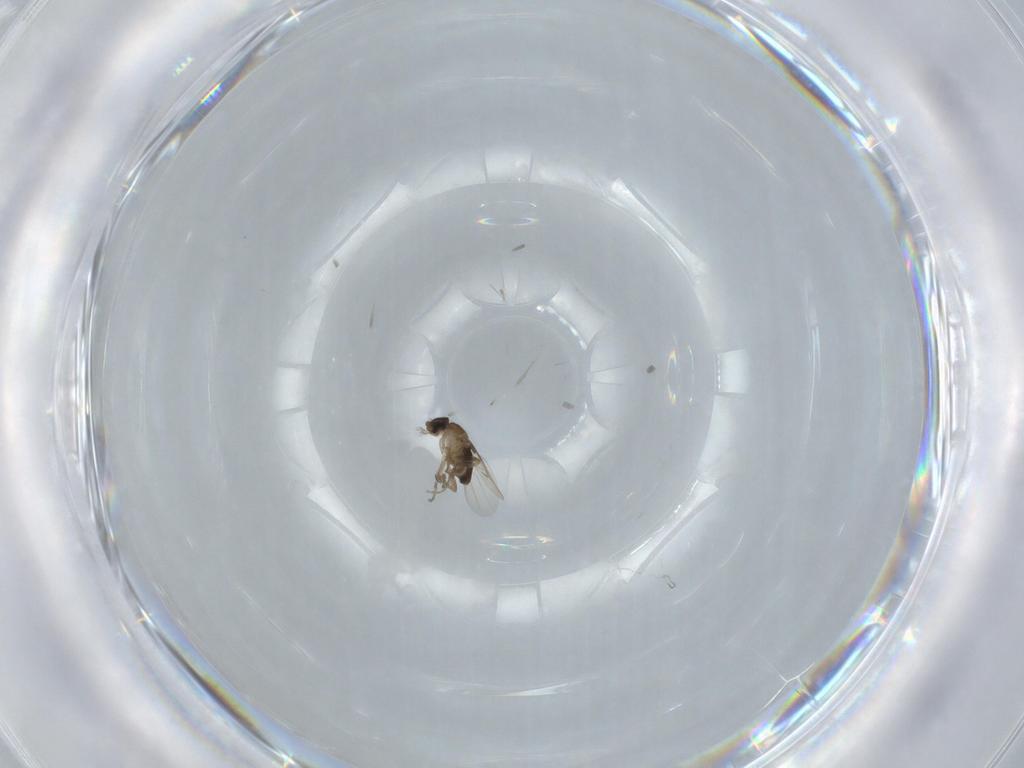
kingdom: Animalia
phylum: Arthropoda
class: Insecta
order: Diptera
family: Phoridae
